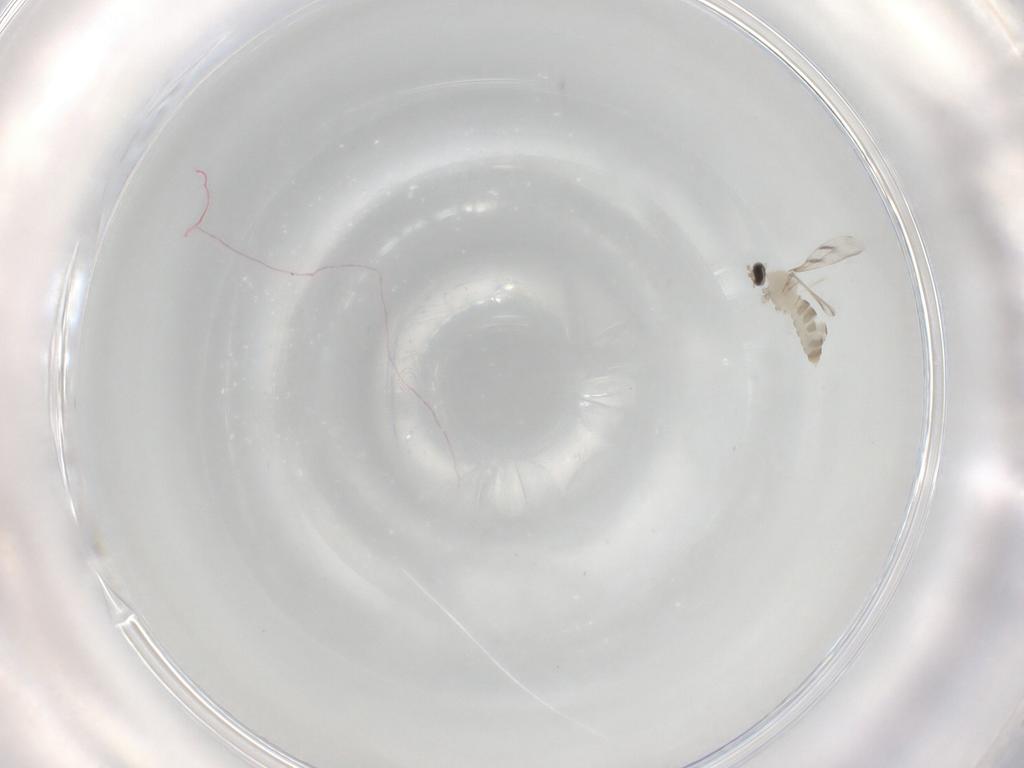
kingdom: Animalia
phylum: Arthropoda
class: Insecta
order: Diptera
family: Cecidomyiidae
